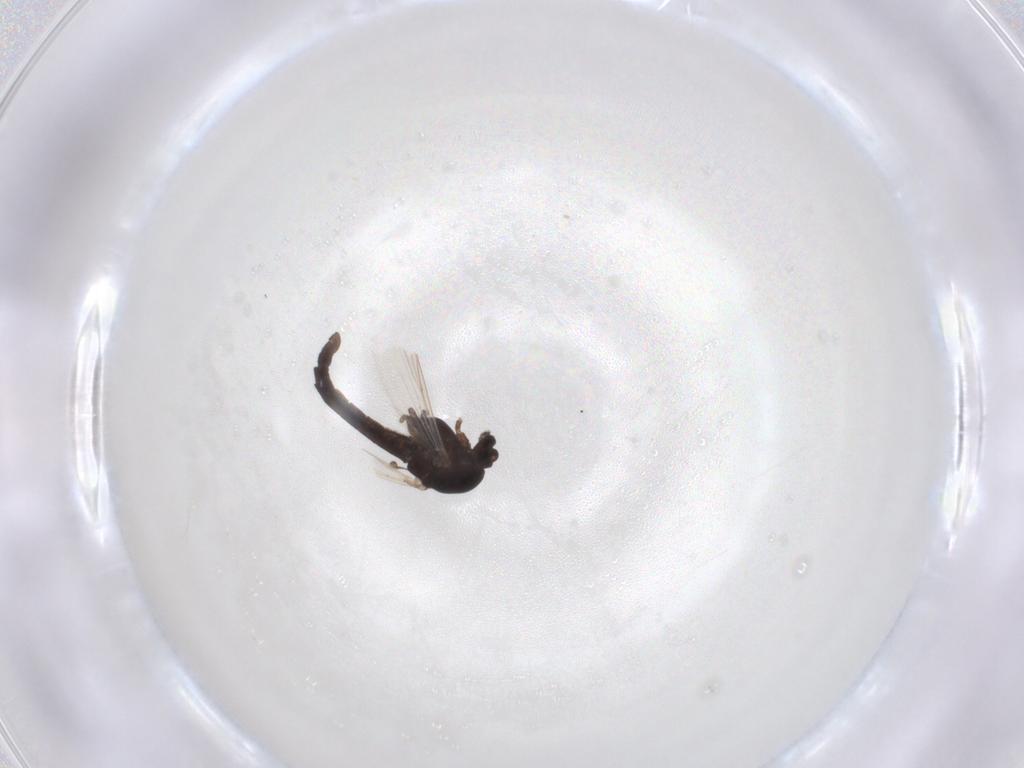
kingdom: Animalia
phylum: Arthropoda
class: Insecta
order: Diptera
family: Chironomidae
